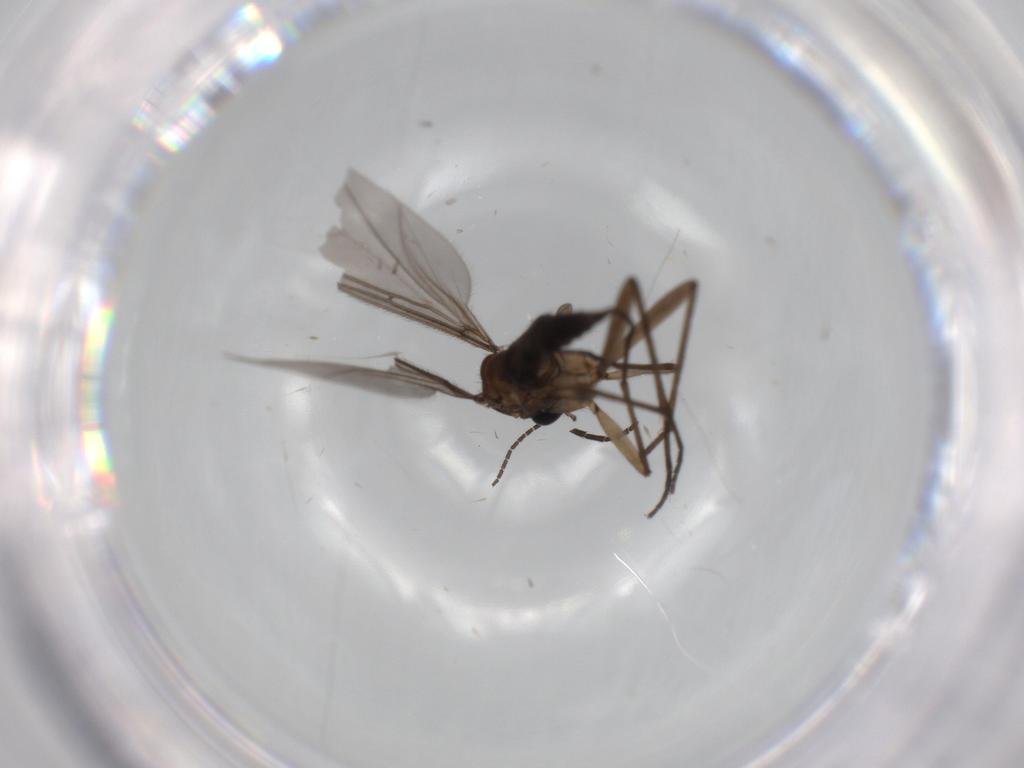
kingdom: Animalia
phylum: Arthropoda
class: Insecta
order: Diptera
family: Sciaridae
